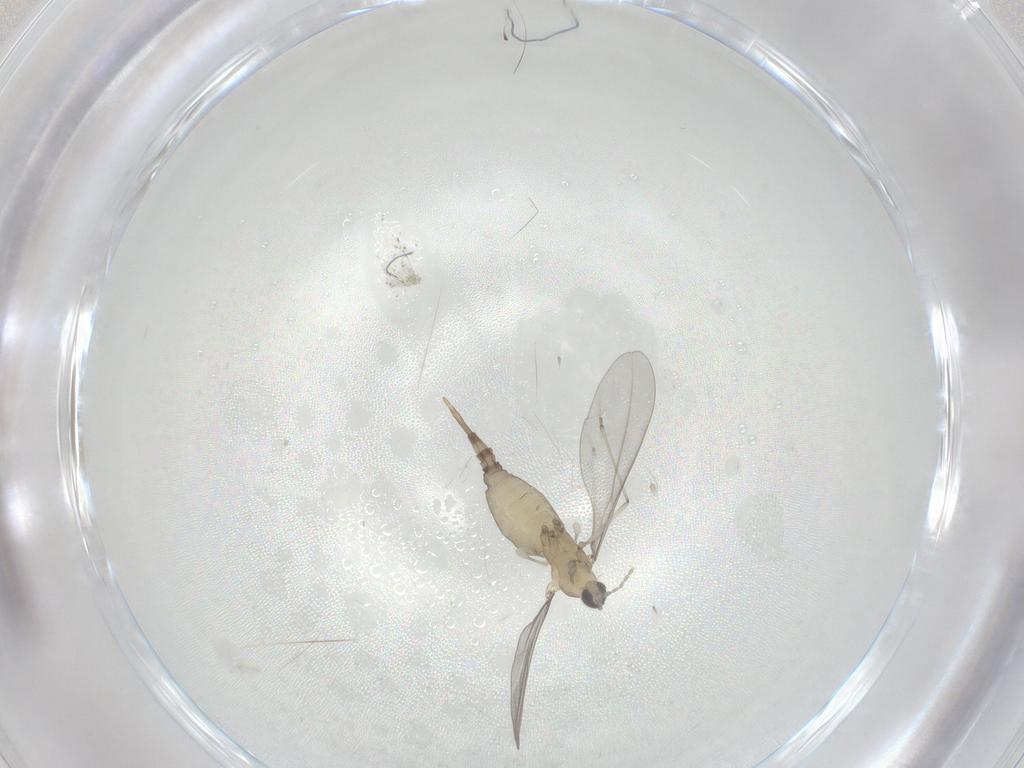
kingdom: Animalia
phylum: Arthropoda
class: Insecta
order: Diptera
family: Cecidomyiidae
